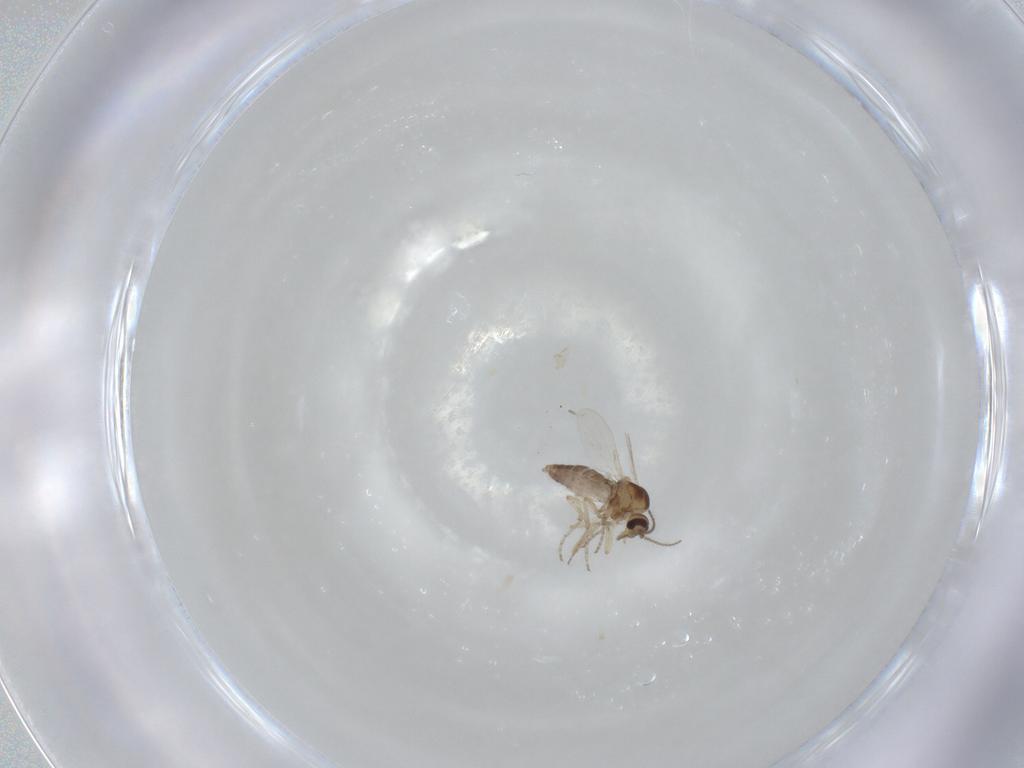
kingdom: Animalia
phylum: Arthropoda
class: Insecta
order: Diptera
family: Ceratopogonidae
